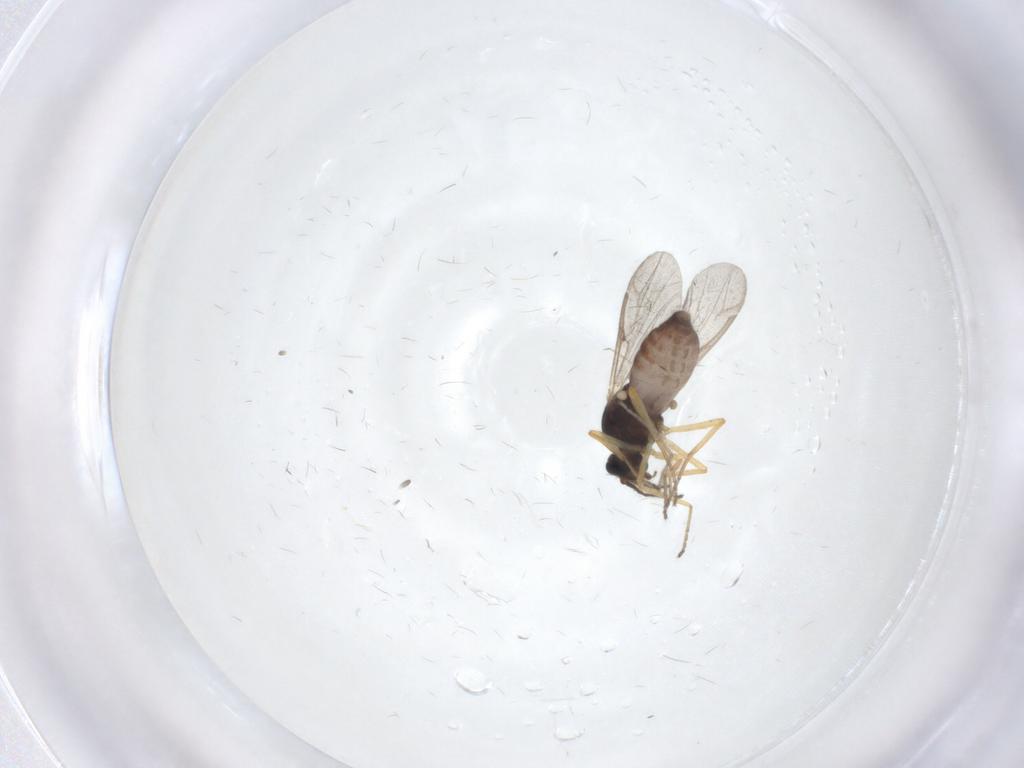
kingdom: Animalia
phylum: Arthropoda
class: Insecta
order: Diptera
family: Ceratopogonidae
